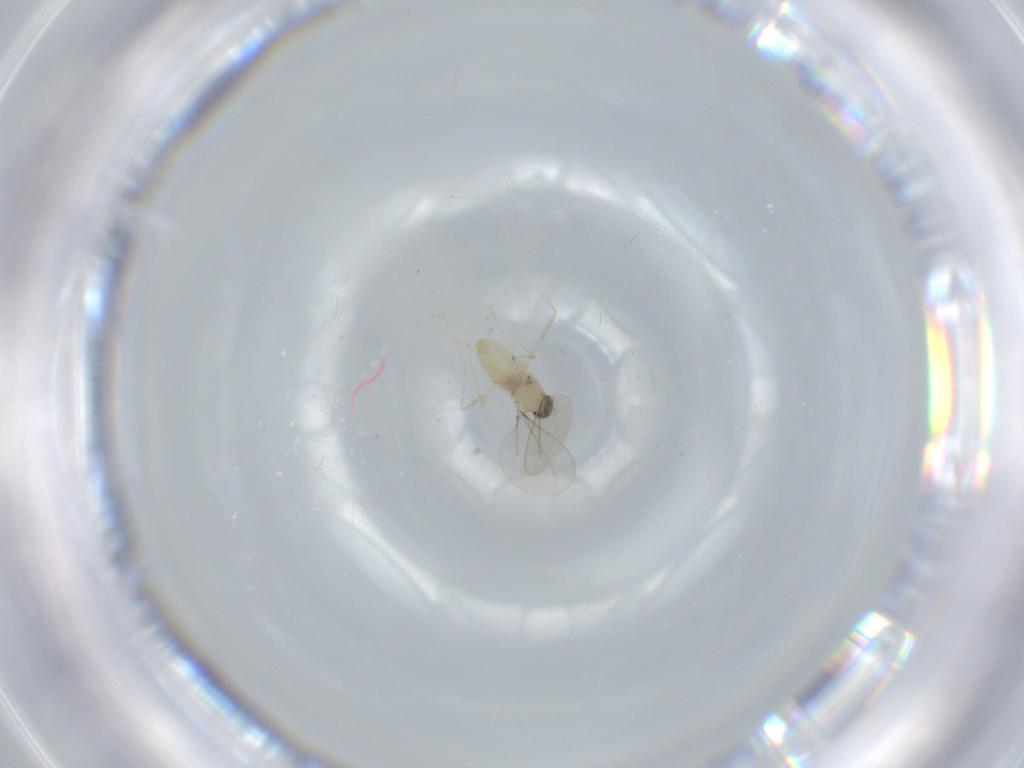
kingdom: Animalia
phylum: Arthropoda
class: Insecta
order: Diptera
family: Cecidomyiidae
